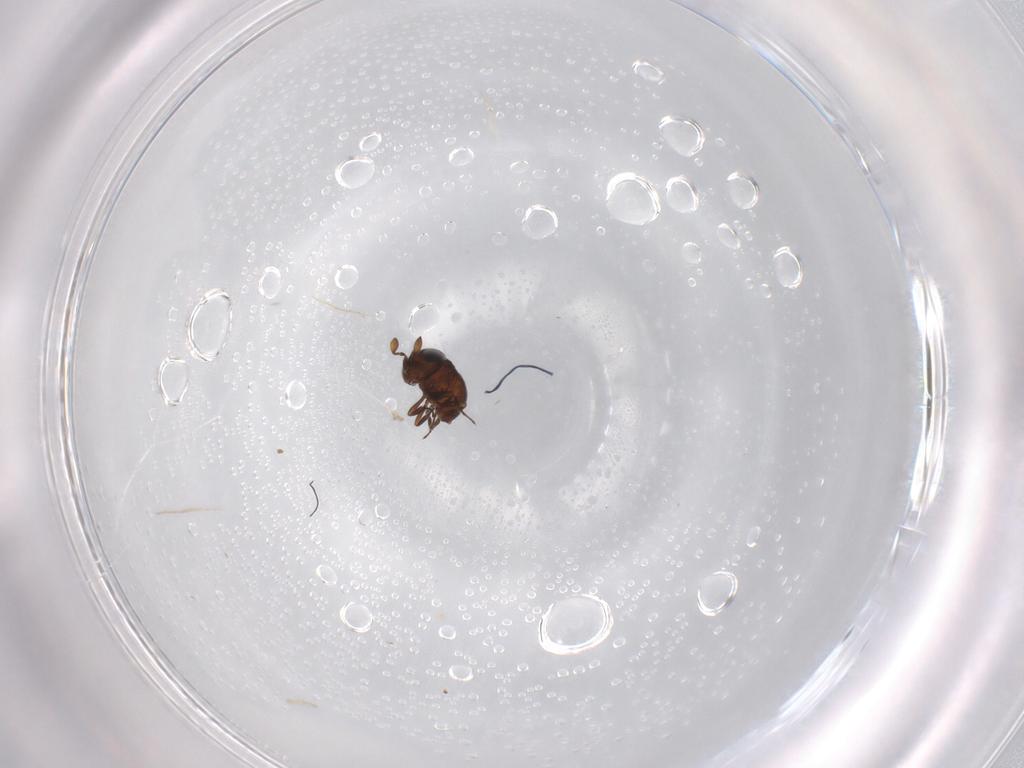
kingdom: Animalia
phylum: Arthropoda
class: Insecta
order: Hymenoptera
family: Scelionidae
